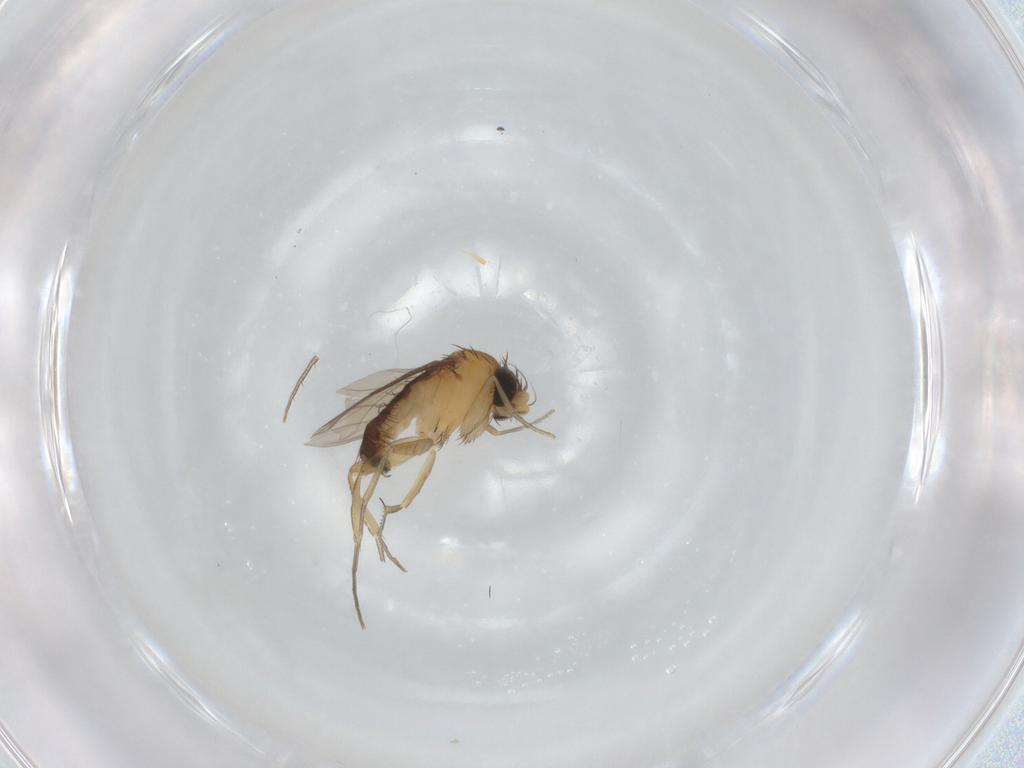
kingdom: Animalia
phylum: Arthropoda
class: Insecta
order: Diptera
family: Phoridae
